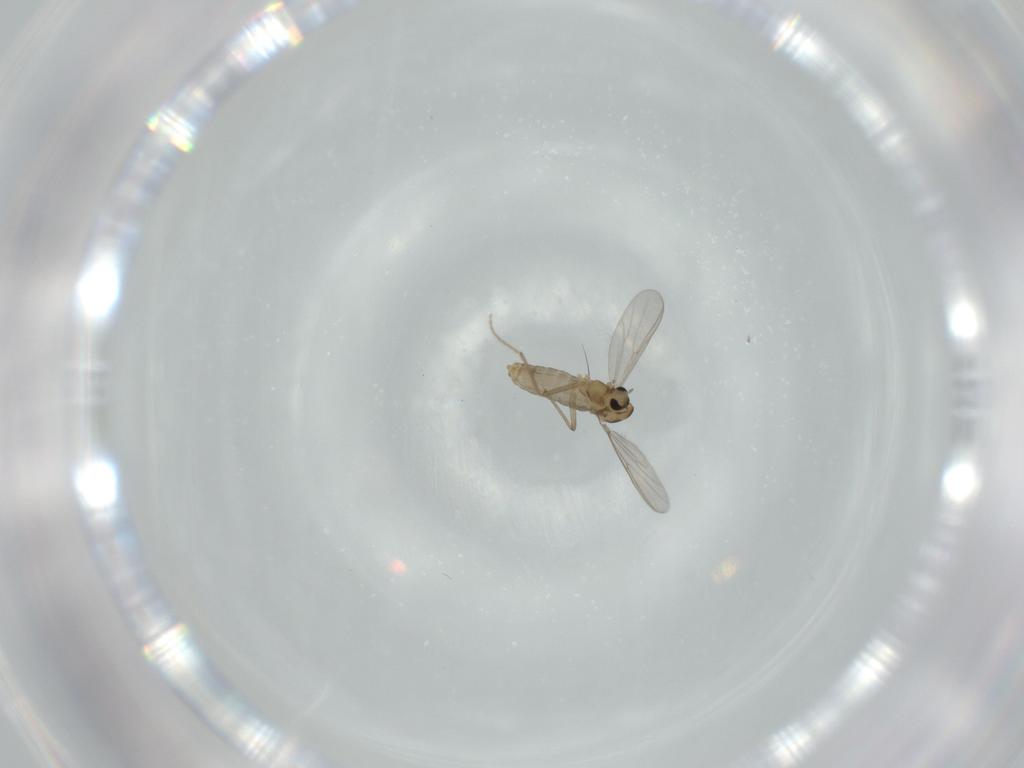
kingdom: Animalia
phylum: Arthropoda
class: Insecta
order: Diptera
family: Chironomidae
